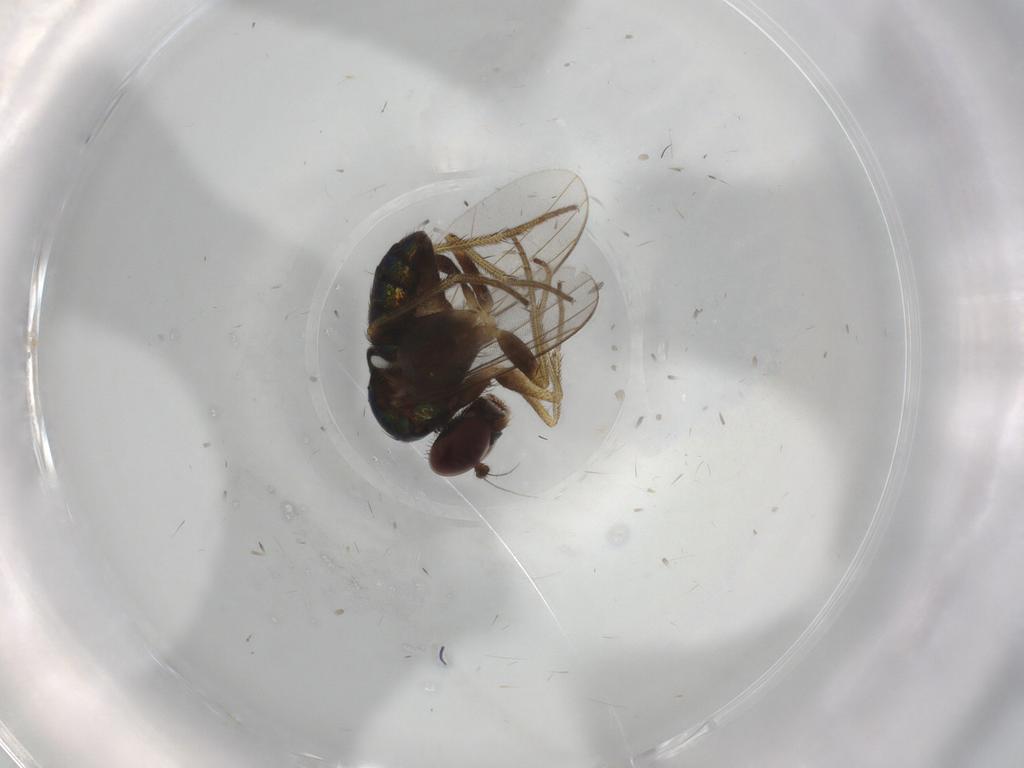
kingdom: Animalia
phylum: Arthropoda
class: Insecta
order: Diptera
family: Dolichopodidae
